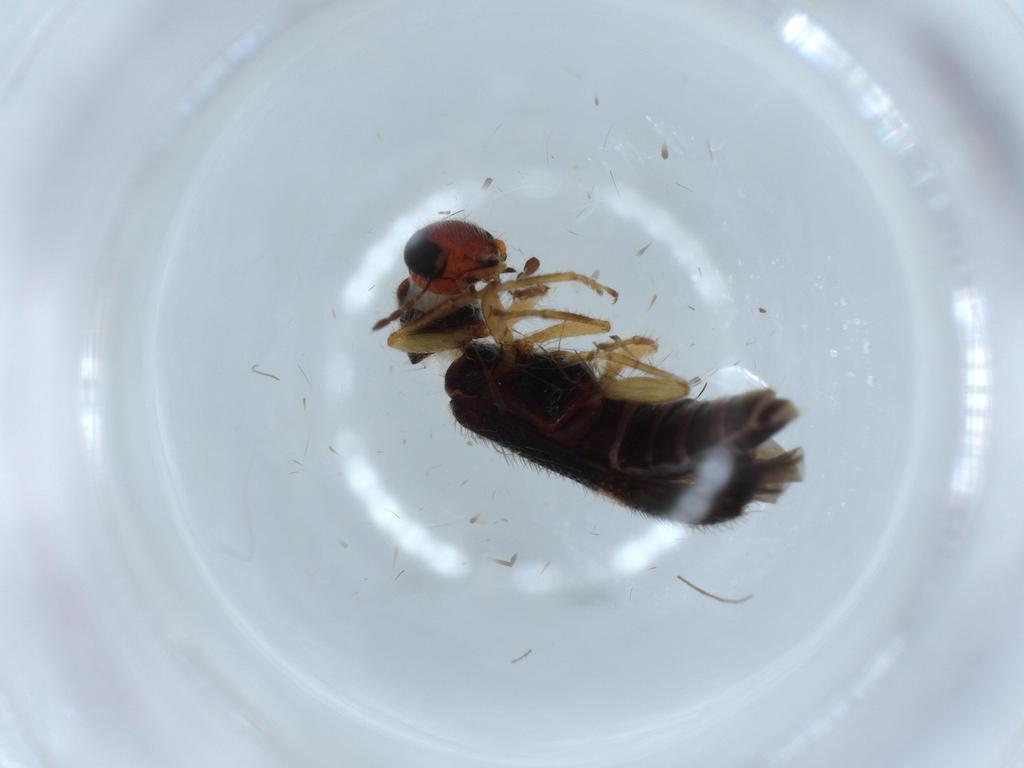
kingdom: Animalia
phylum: Arthropoda
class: Insecta
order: Coleoptera
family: Cleridae
